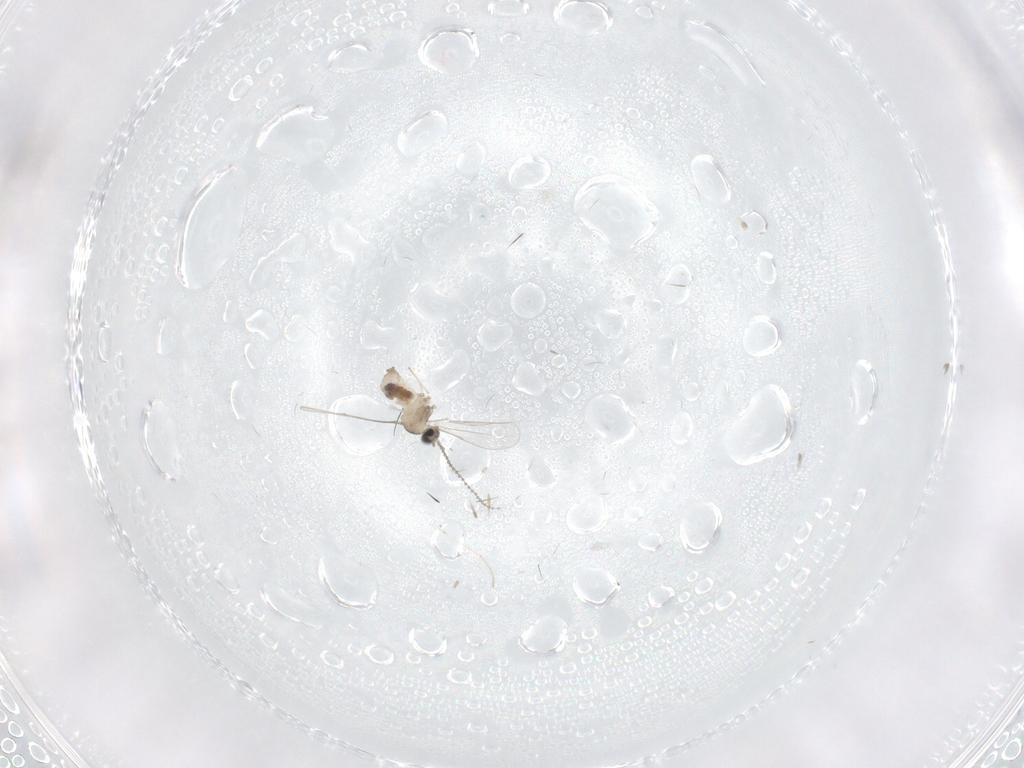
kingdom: Animalia
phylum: Arthropoda
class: Insecta
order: Diptera
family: Cecidomyiidae
